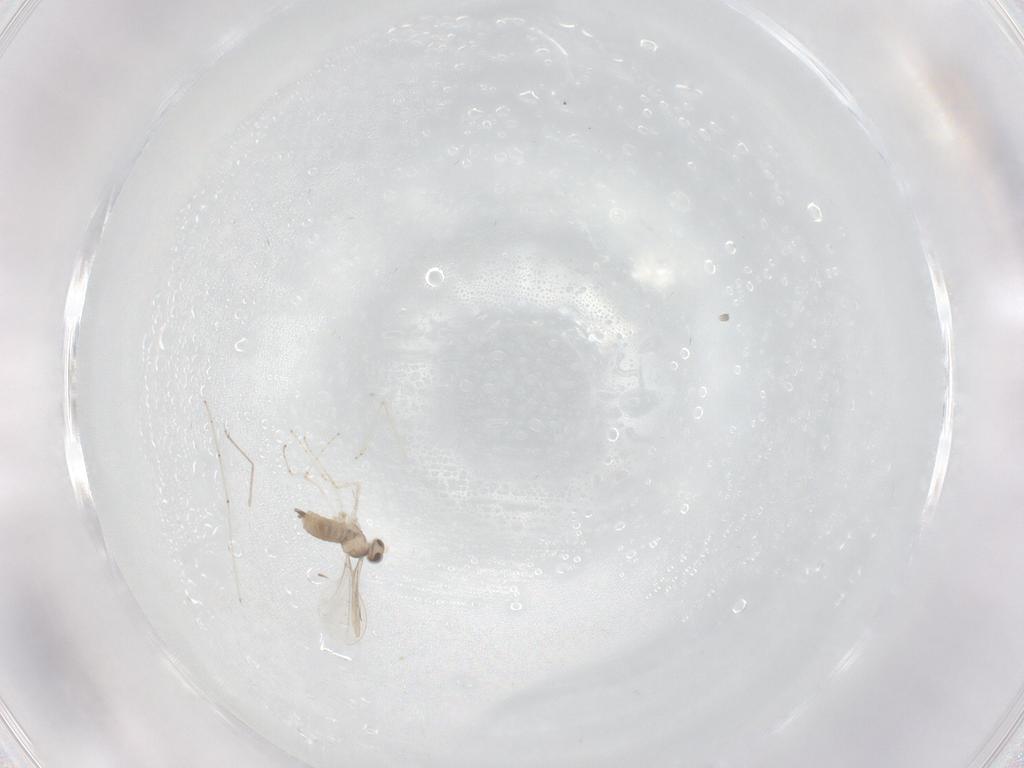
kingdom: Animalia
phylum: Arthropoda
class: Insecta
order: Diptera
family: Cecidomyiidae
